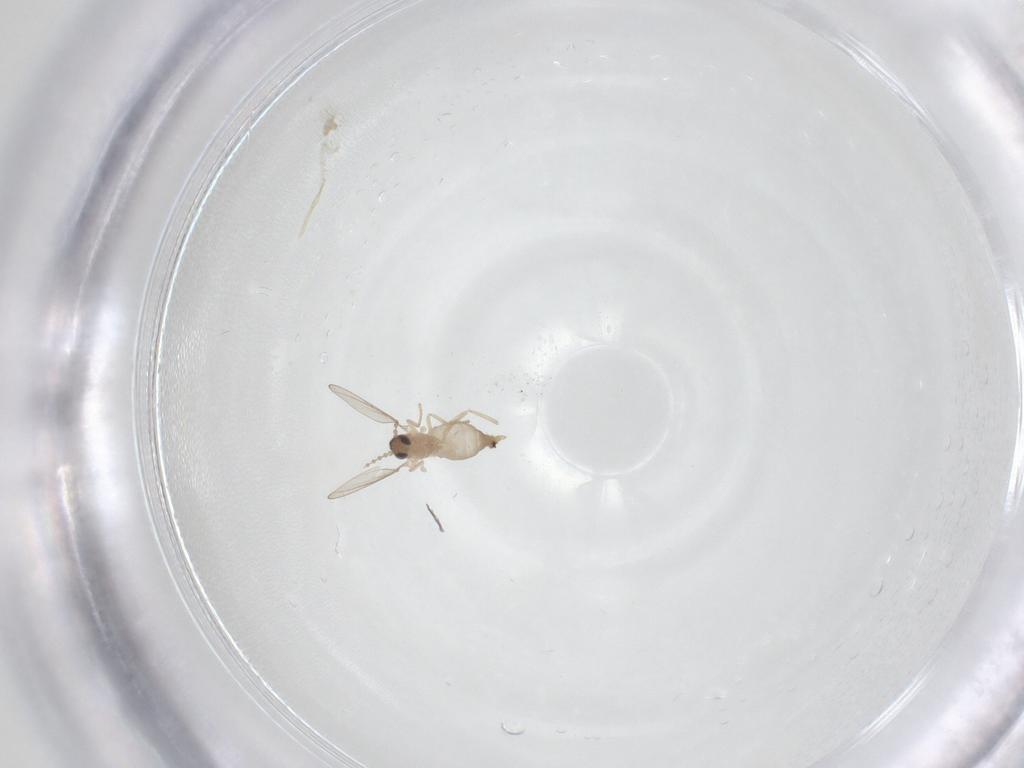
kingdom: Animalia
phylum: Arthropoda
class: Insecta
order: Diptera
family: Cecidomyiidae
